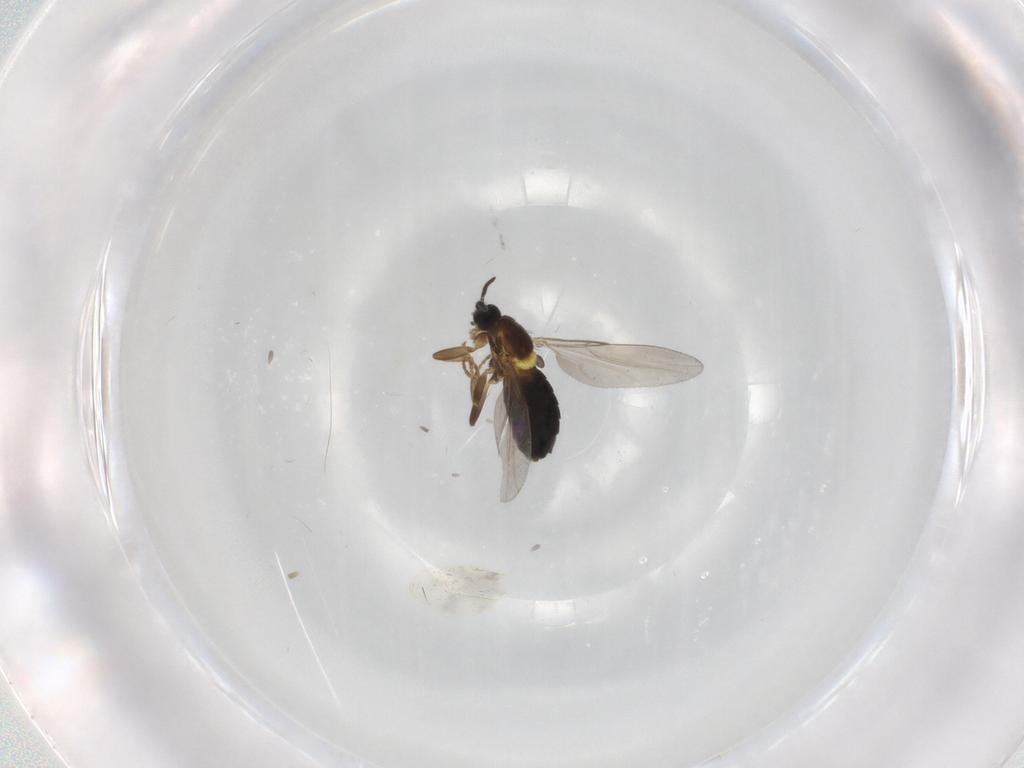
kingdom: Animalia
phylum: Arthropoda
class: Insecta
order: Diptera
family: Scatopsidae
